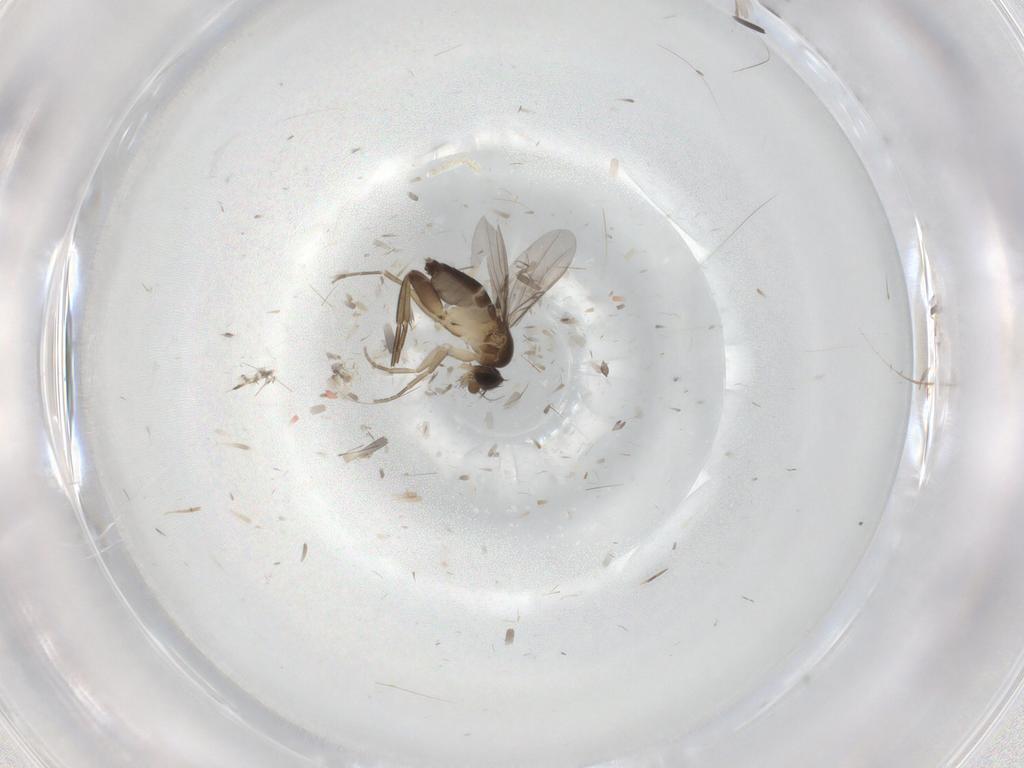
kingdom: Animalia
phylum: Arthropoda
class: Insecta
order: Diptera
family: Phoridae
